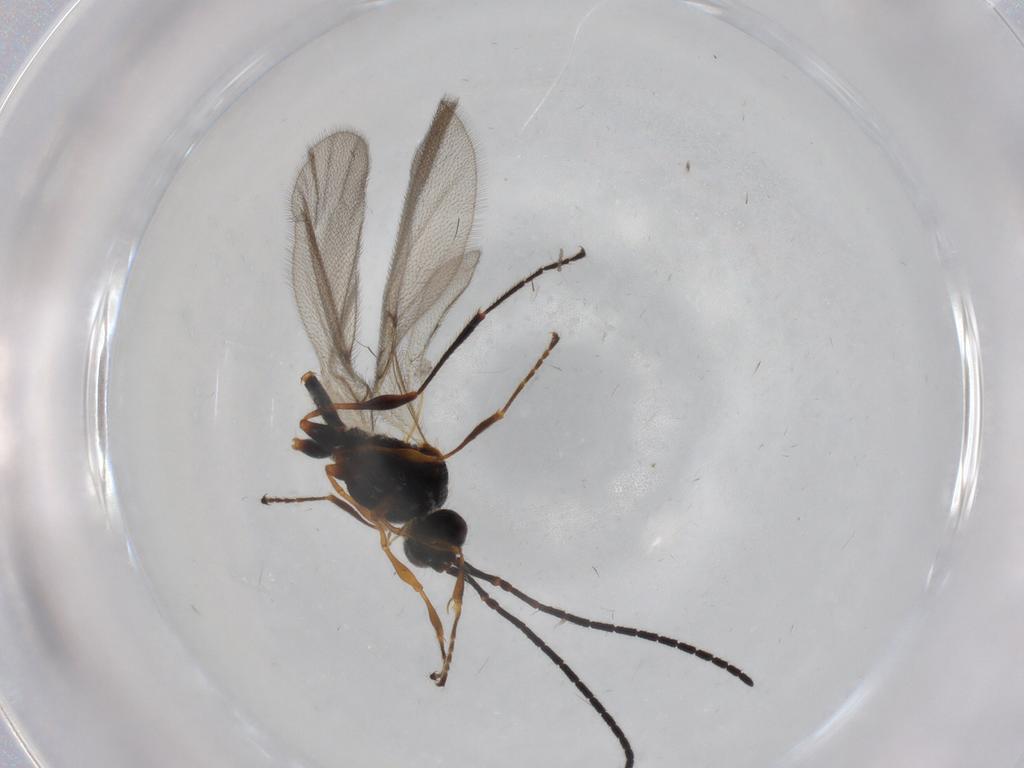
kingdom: Animalia
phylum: Arthropoda
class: Insecta
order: Hymenoptera
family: Diapriidae
